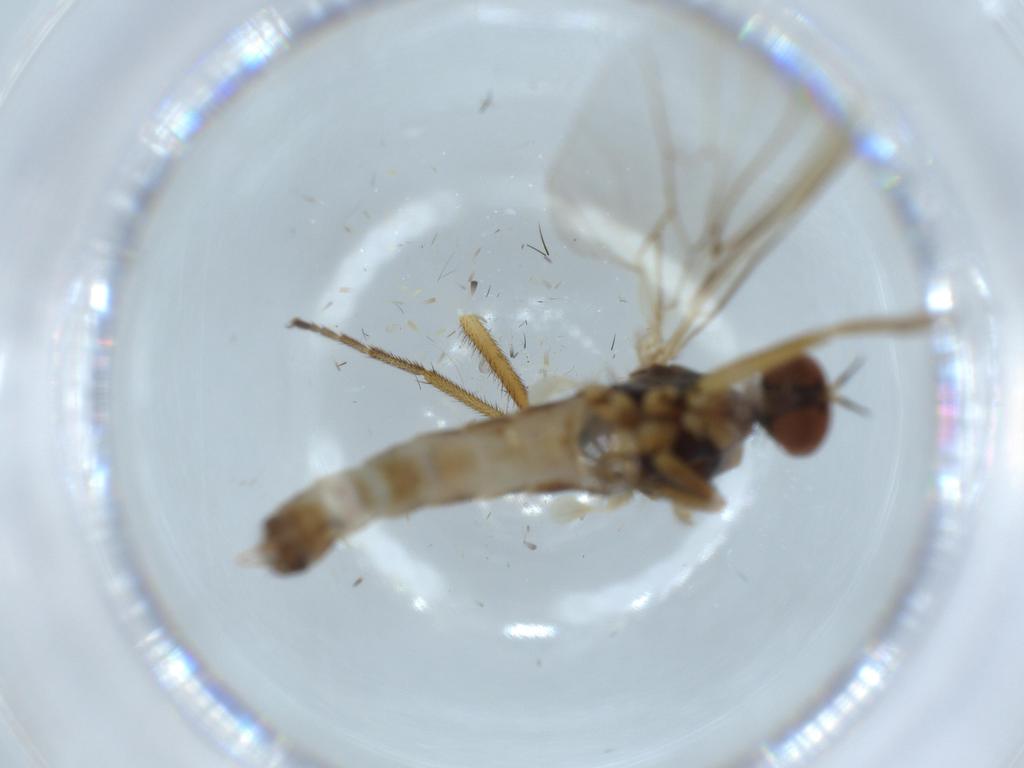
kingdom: Animalia
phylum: Arthropoda
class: Insecta
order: Diptera
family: Empididae
